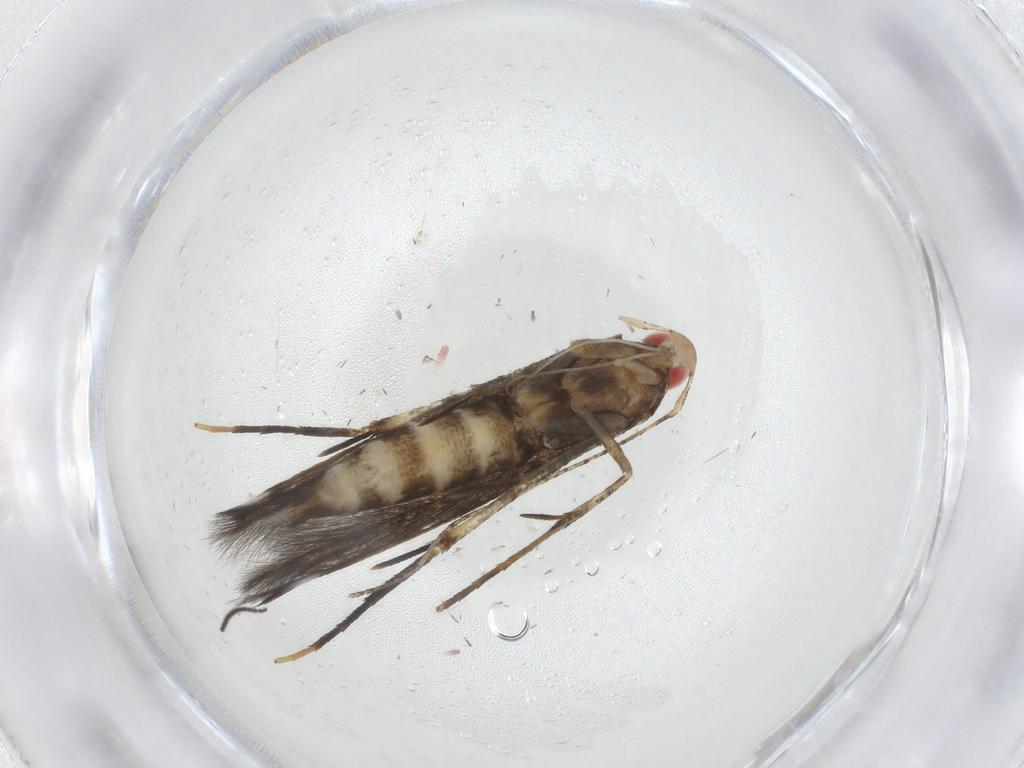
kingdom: Animalia
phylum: Arthropoda
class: Insecta
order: Lepidoptera
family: Cosmopterigidae
